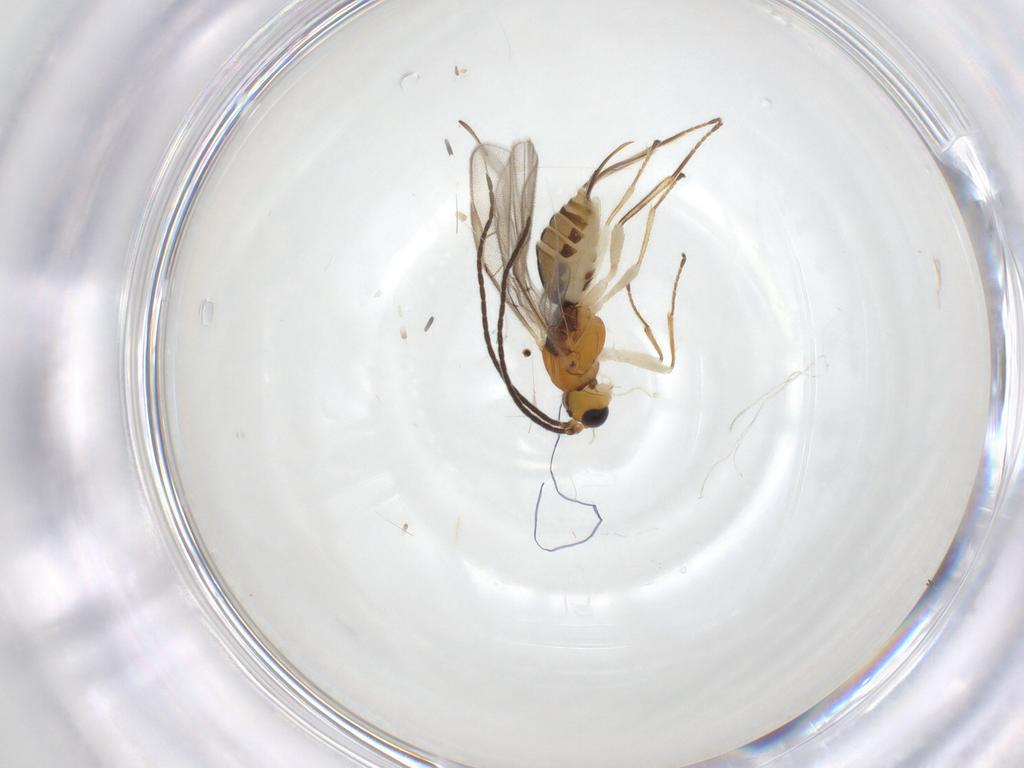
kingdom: Animalia
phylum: Arthropoda
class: Insecta
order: Hymenoptera
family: Braconidae
